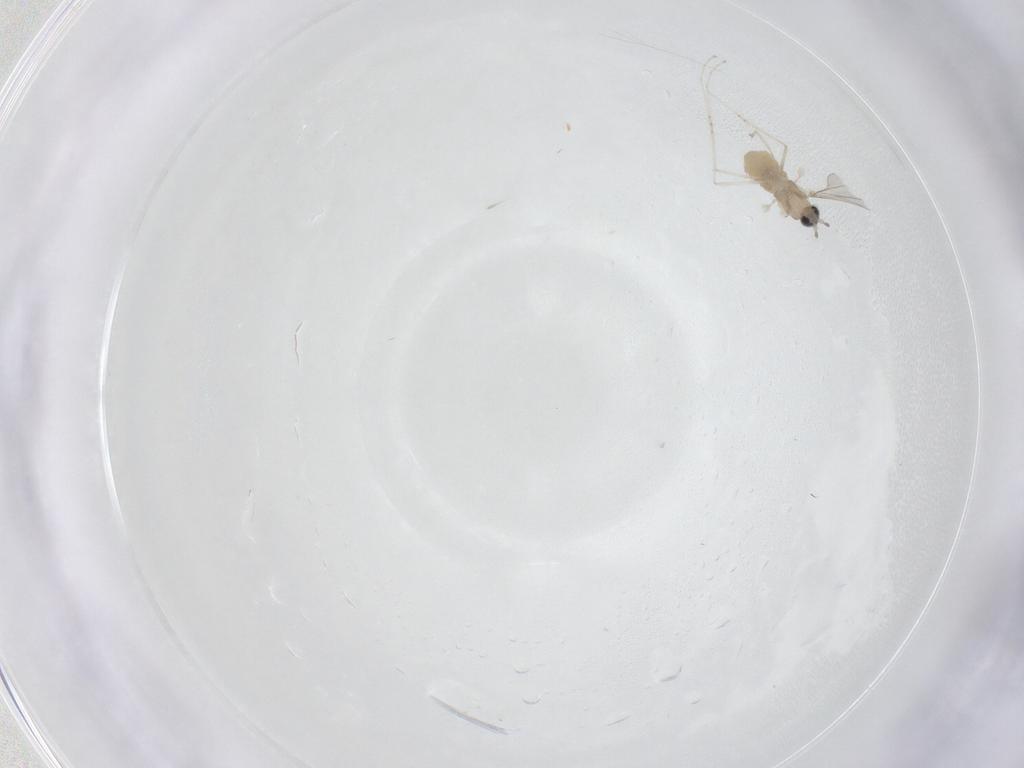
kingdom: Animalia
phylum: Arthropoda
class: Insecta
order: Diptera
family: Cecidomyiidae
